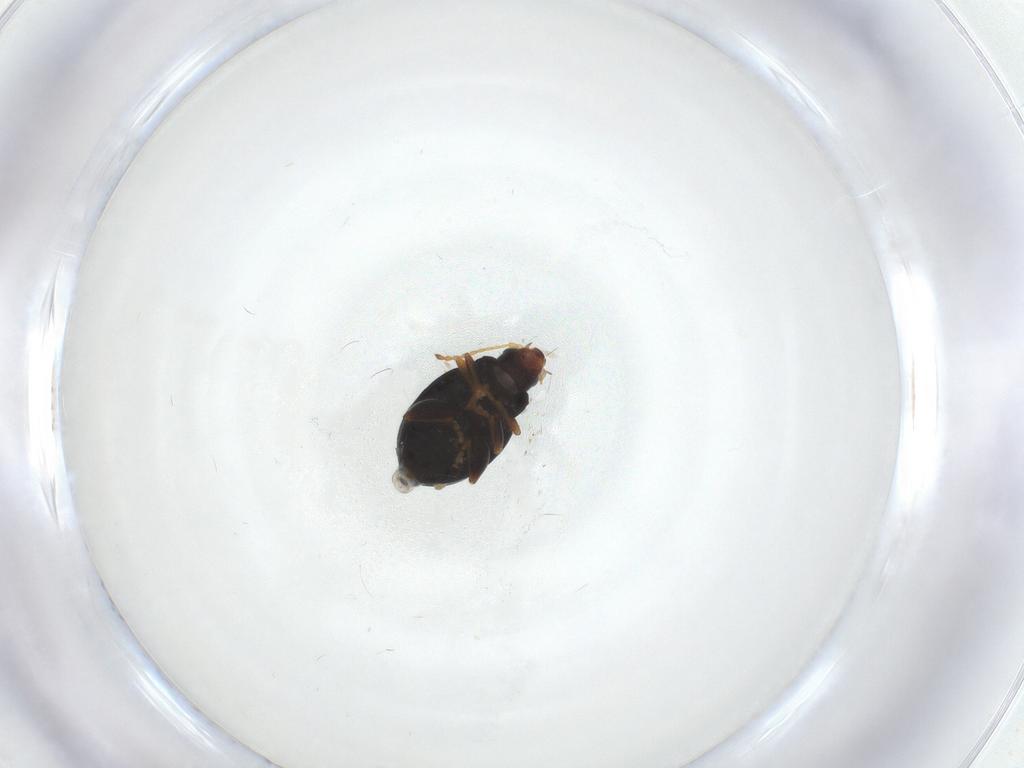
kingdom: Animalia
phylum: Arthropoda
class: Insecta
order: Coleoptera
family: Chrysomelidae
